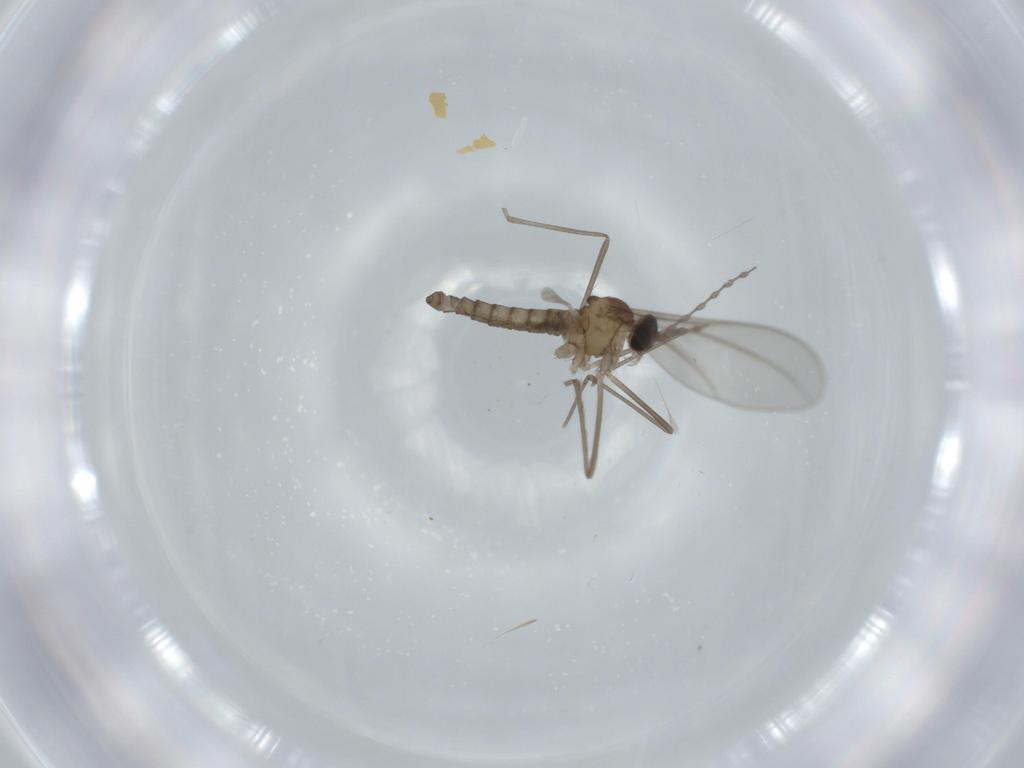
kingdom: Animalia
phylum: Arthropoda
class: Insecta
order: Diptera
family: Cecidomyiidae
